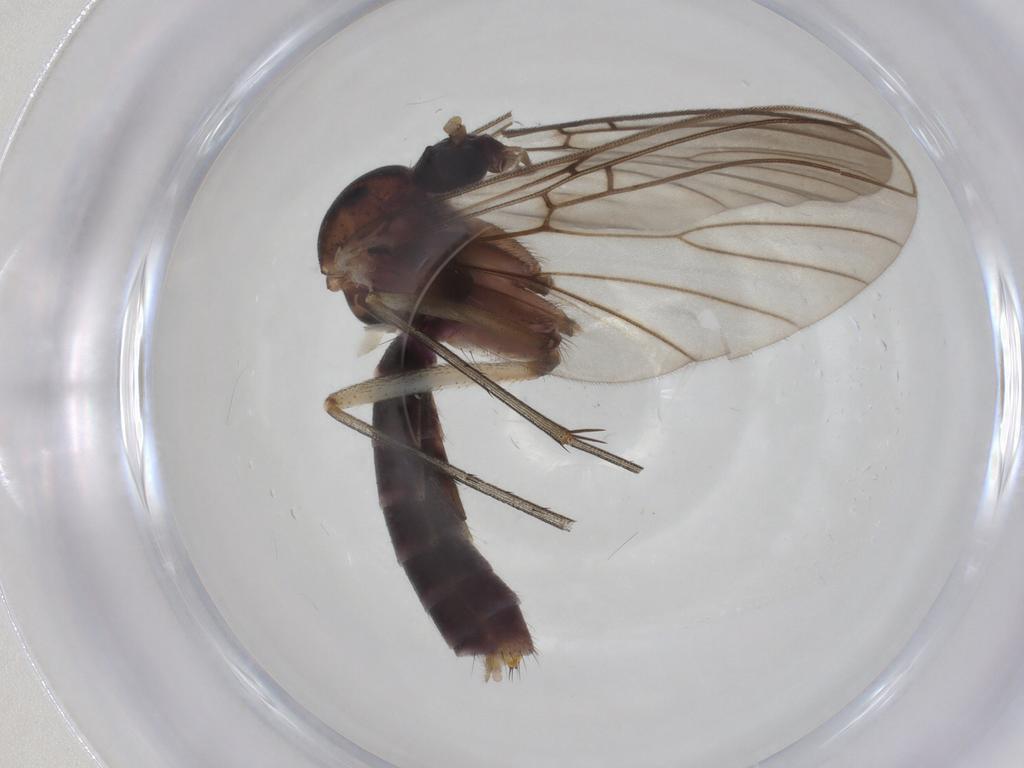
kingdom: Animalia
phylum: Arthropoda
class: Insecta
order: Diptera
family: Mycetophilidae
